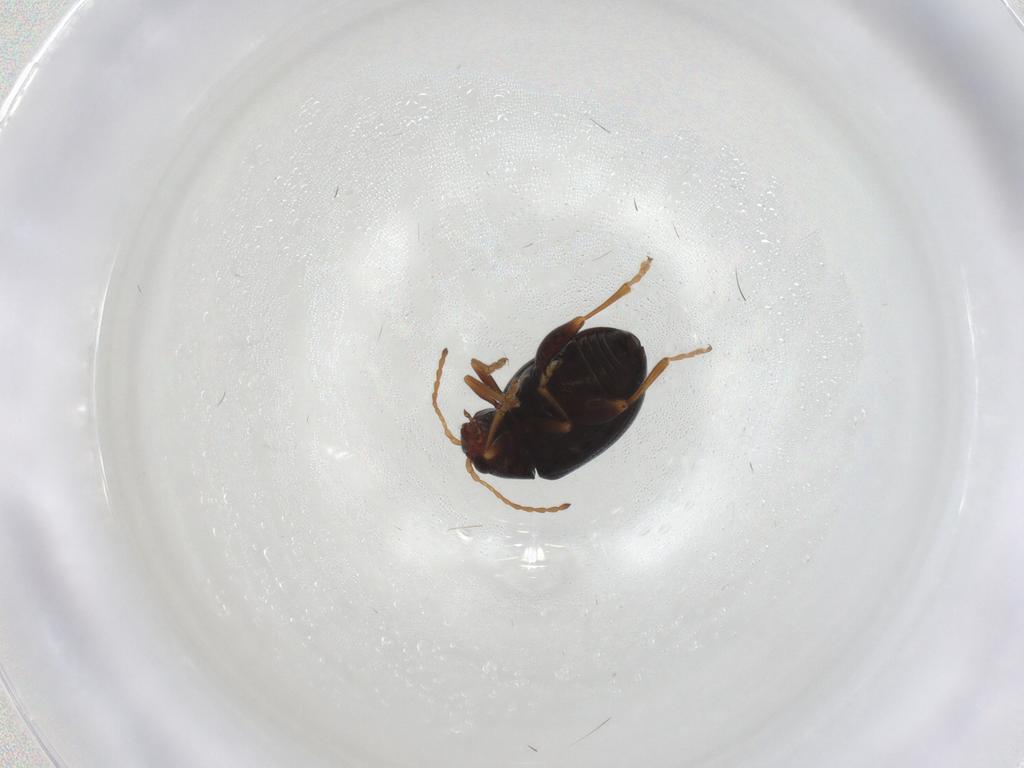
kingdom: Animalia
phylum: Arthropoda
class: Insecta
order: Coleoptera
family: Chrysomelidae
